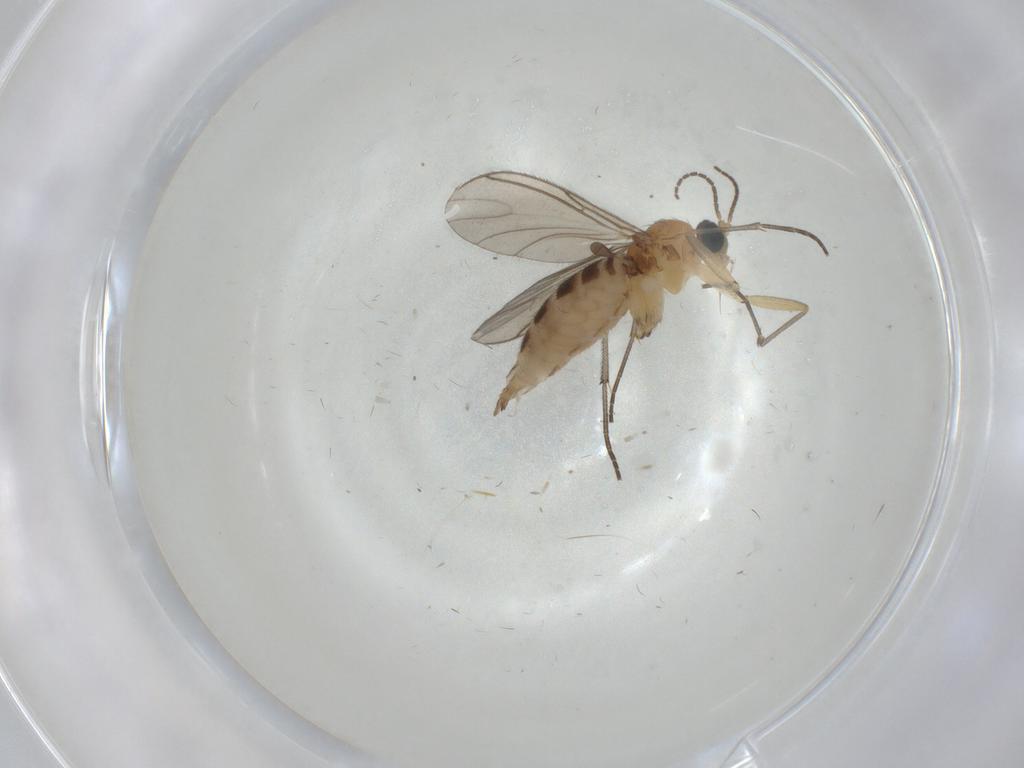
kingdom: Animalia
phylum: Arthropoda
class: Insecta
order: Diptera
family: Sciaridae
